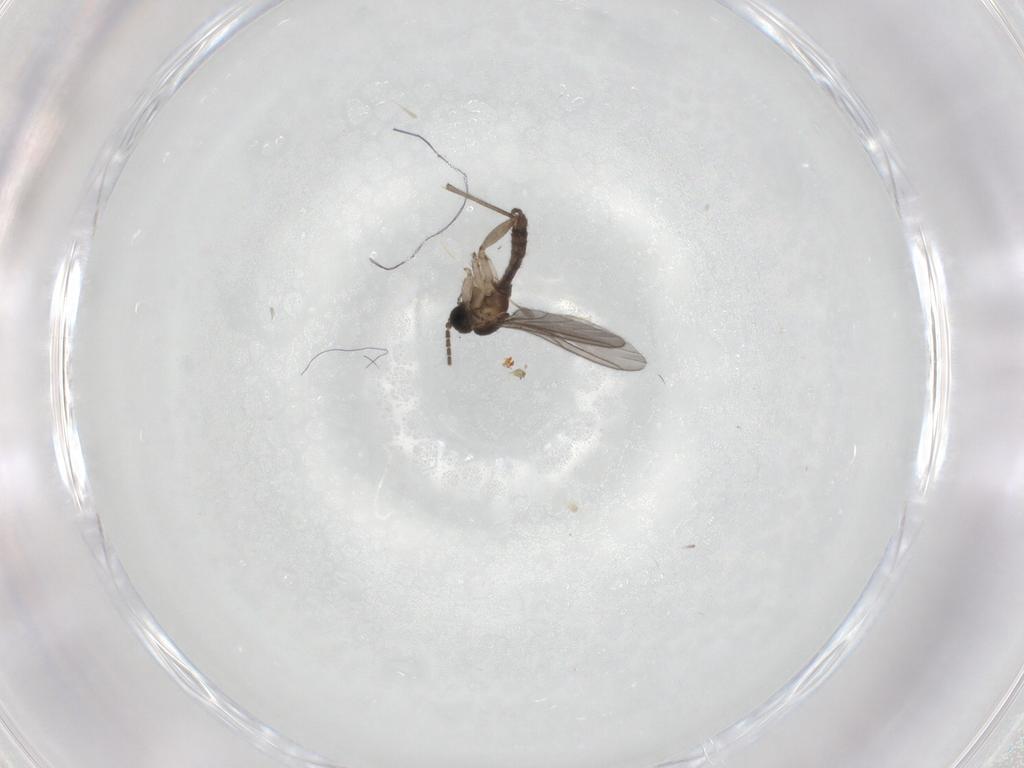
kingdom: Animalia
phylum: Arthropoda
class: Insecta
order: Diptera
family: Sciaridae
